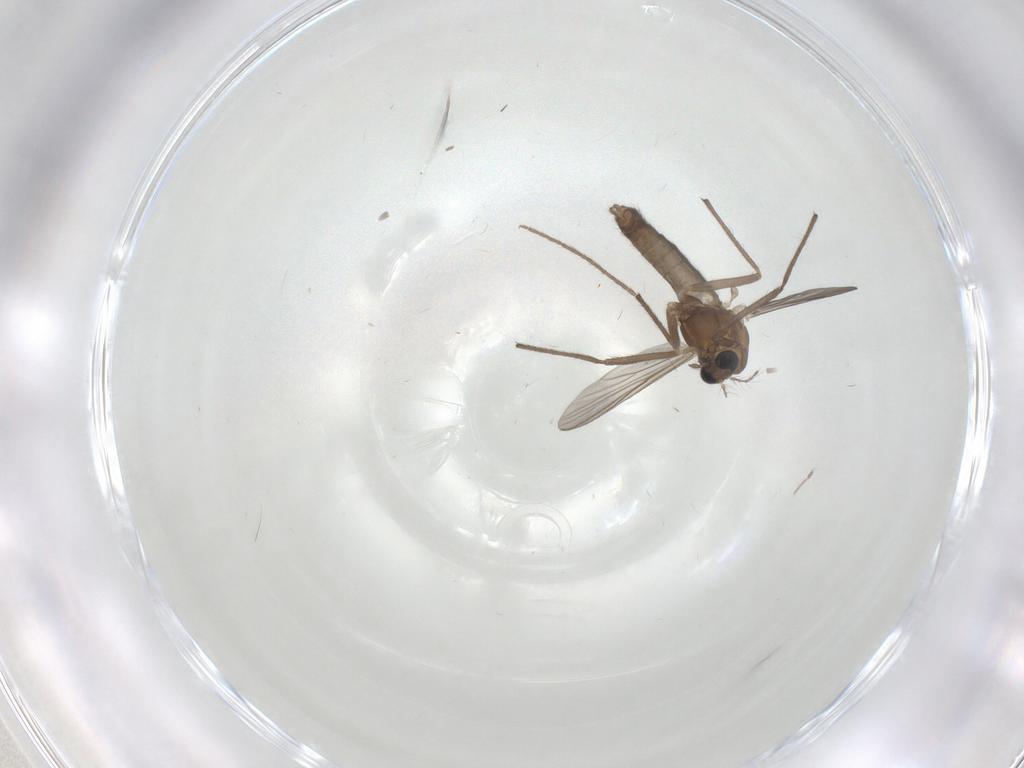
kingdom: Animalia
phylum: Arthropoda
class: Insecta
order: Diptera
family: Chironomidae
